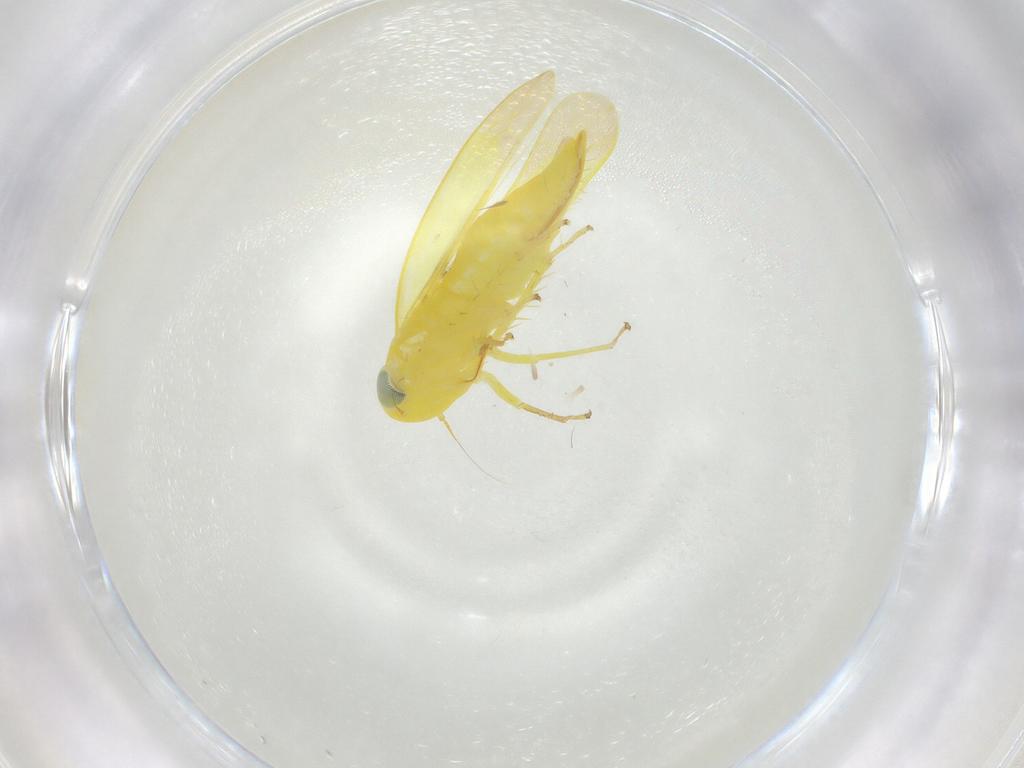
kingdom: Animalia
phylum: Arthropoda
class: Insecta
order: Hemiptera
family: Cicadellidae
